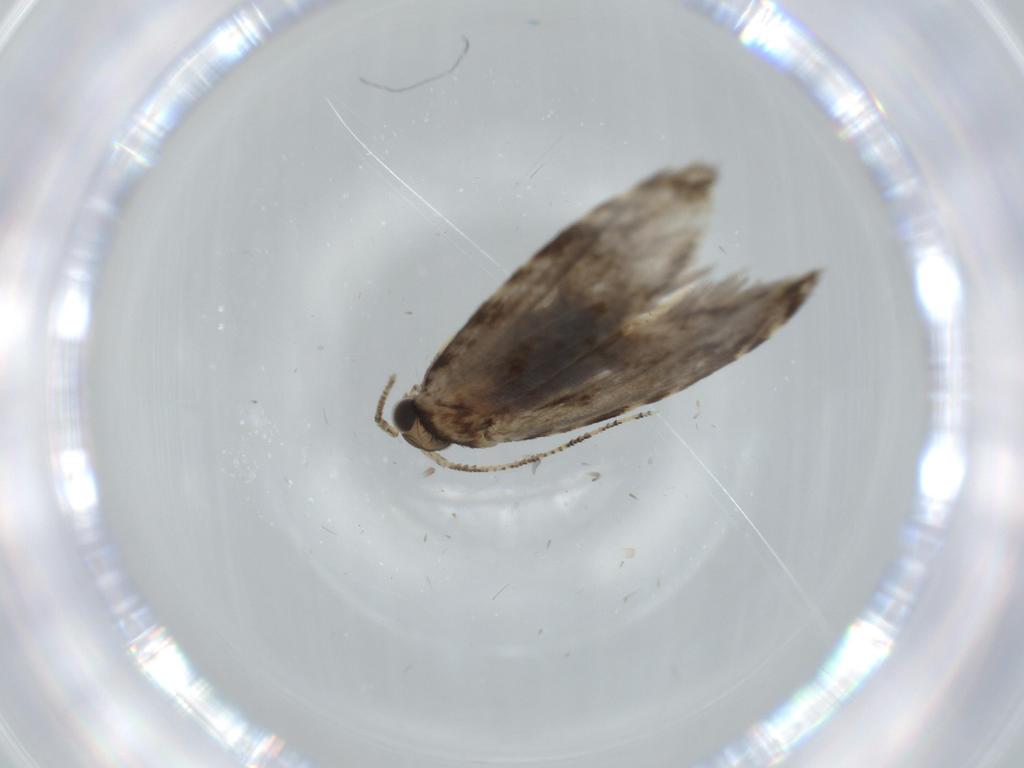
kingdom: Animalia
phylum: Arthropoda
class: Insecta
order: Lepidoptera
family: Tineidae
